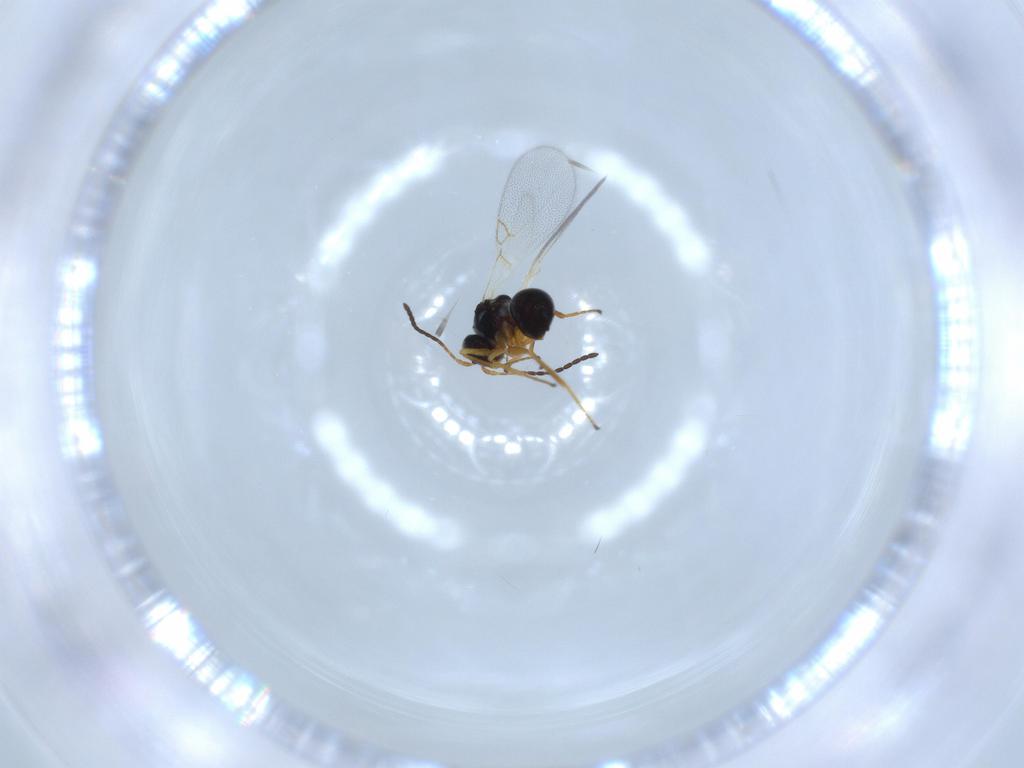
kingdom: Animalia
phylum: Arthropoda
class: Insecta
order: Hymenoptera
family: Figitidae
